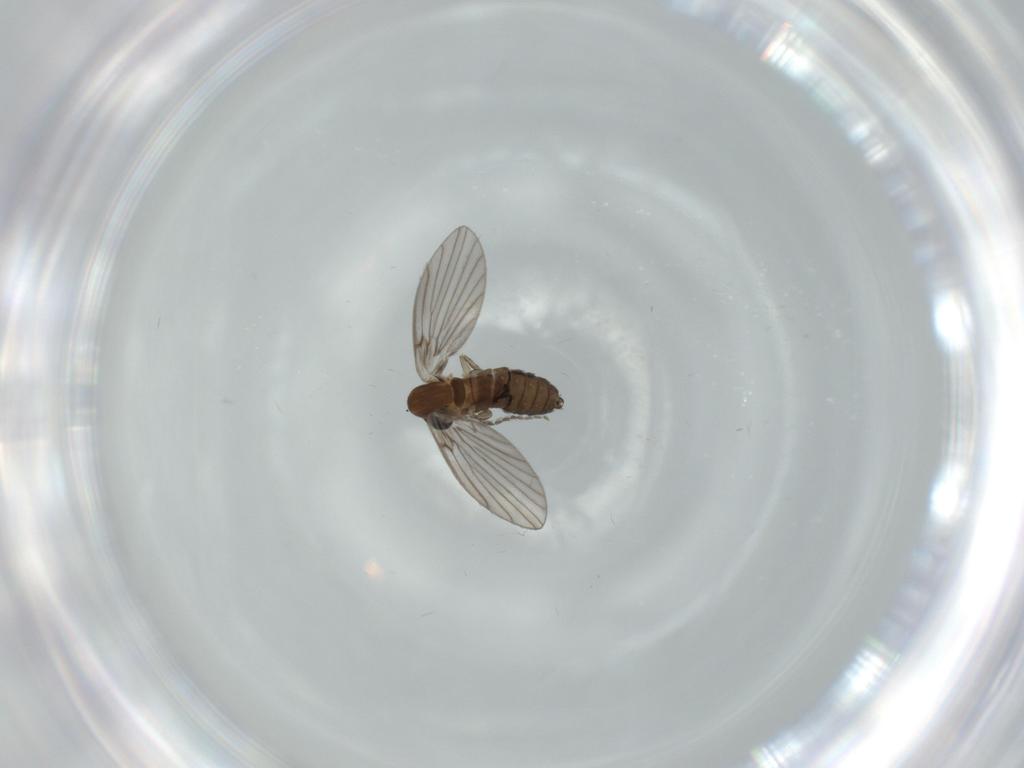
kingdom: Animalia
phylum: Arthropoda
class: Insecta
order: Diptera
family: Psychodidae
